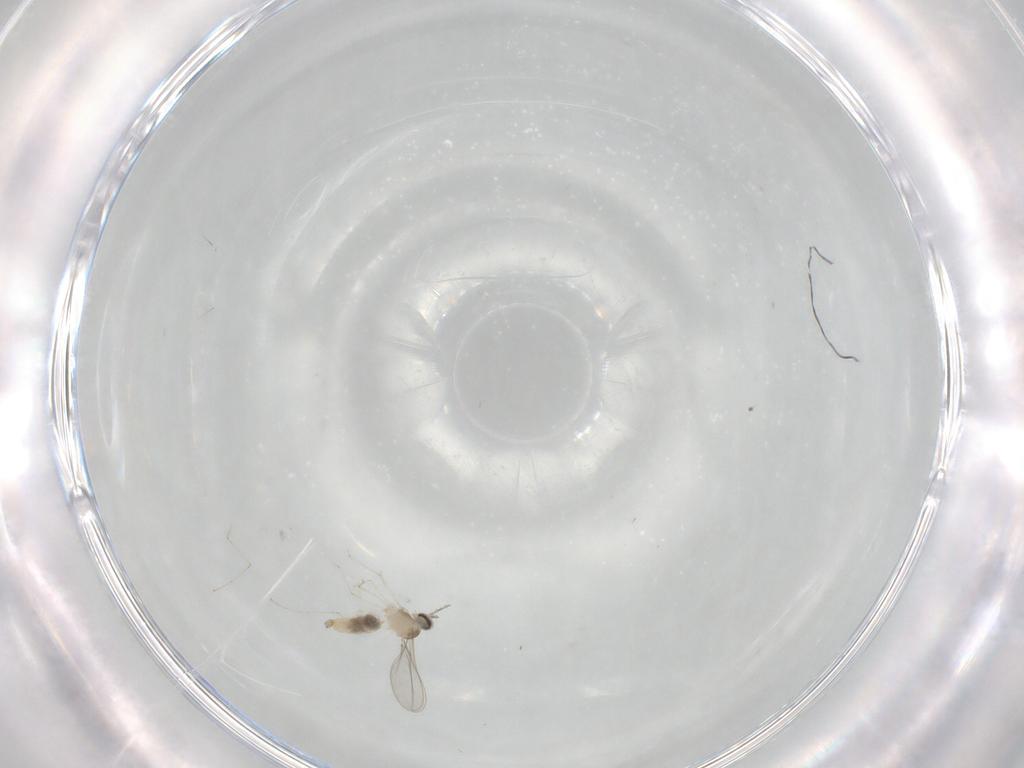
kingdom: Animalia
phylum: Arthropoda
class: Insecta
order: Diptera
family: Cecidomyiidae
